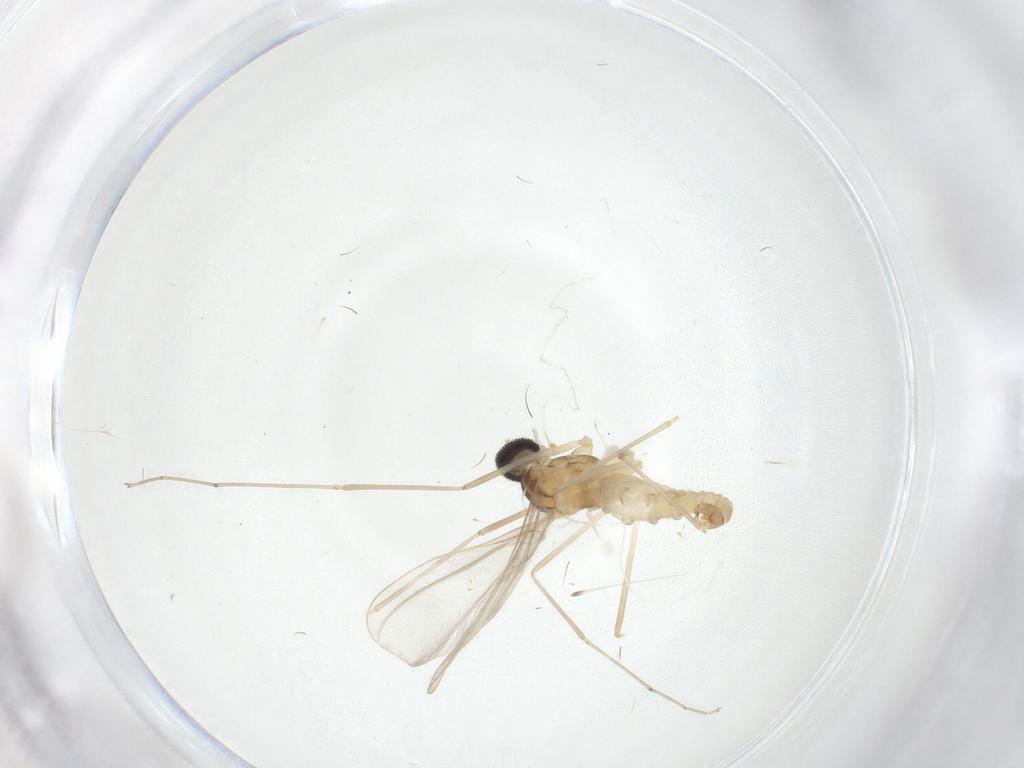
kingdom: Animalia
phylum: Arthropoda
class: Insecta
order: Diptera
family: Cecidomyiidae
